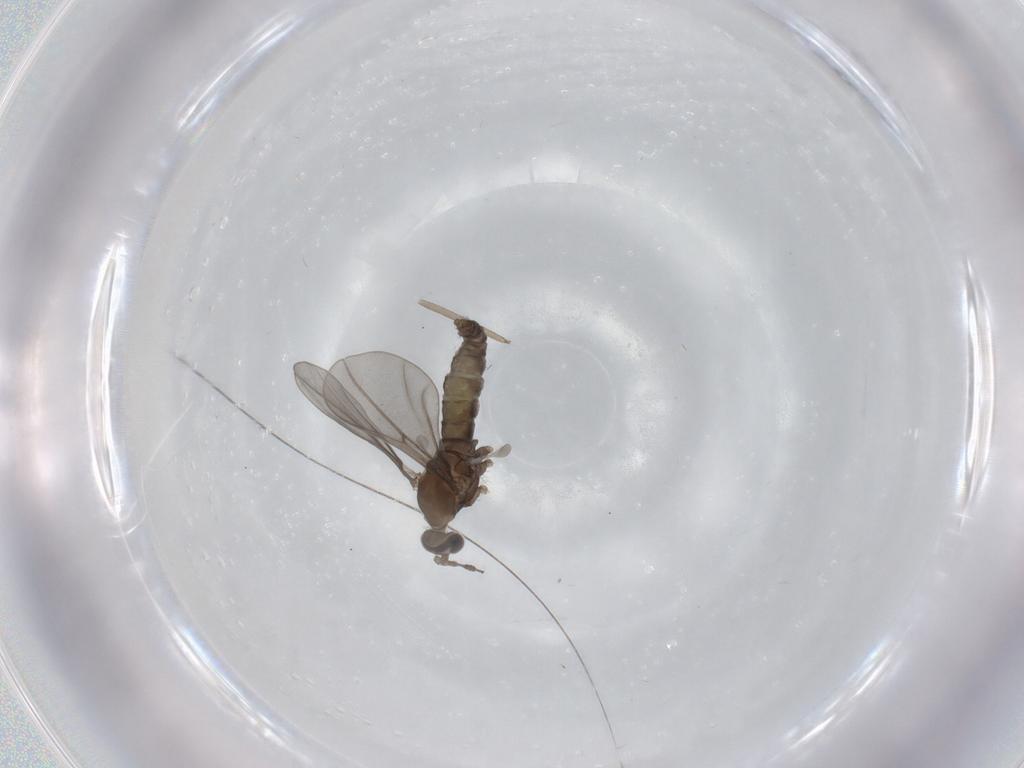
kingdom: Animalia
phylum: Arthropoda
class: Insecta
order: Diptera
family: Cecidomyiidae
